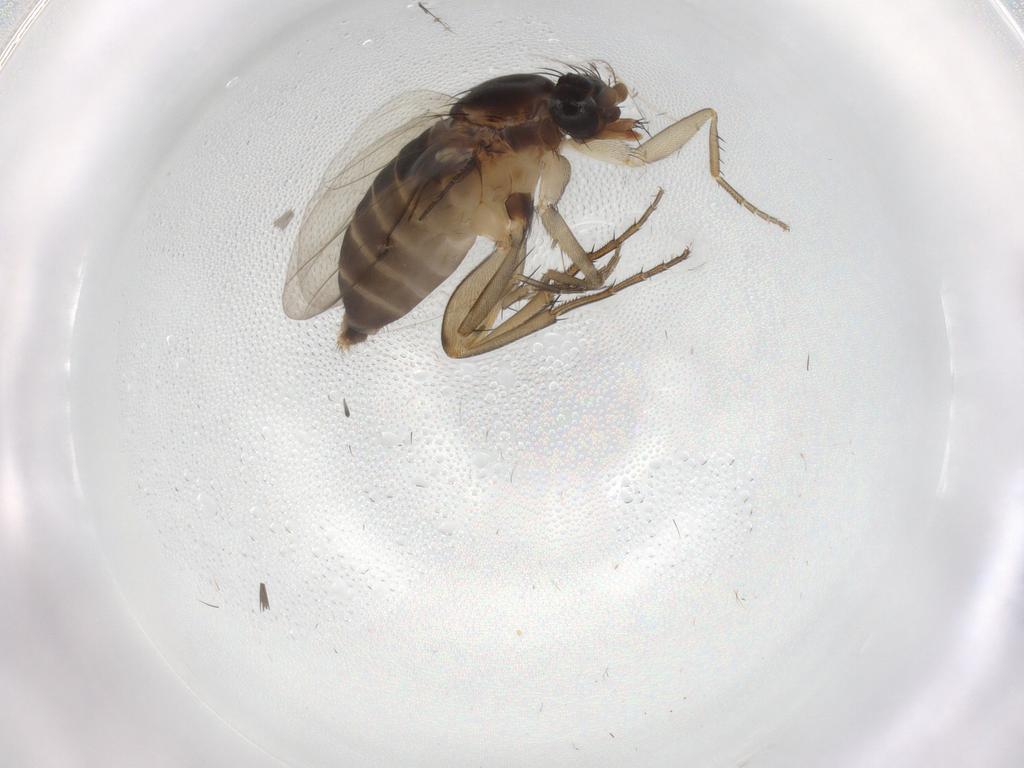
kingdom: Animalia
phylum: Arthropoda
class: Insecta
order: Diptera
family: Phoridae
